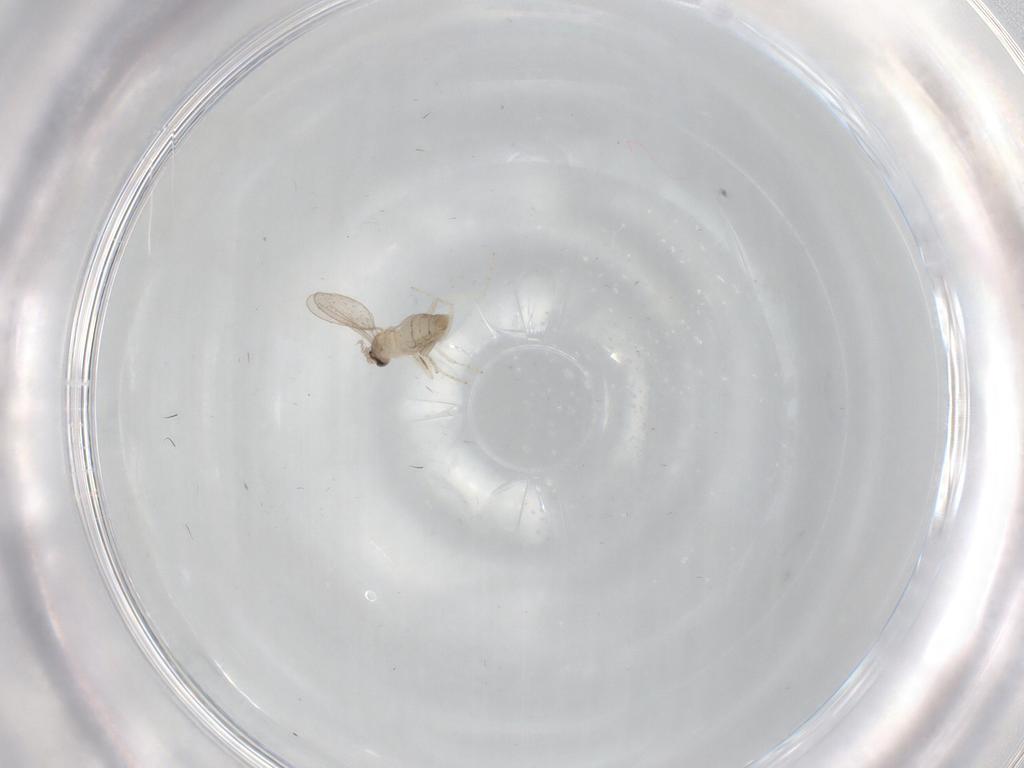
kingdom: Animalia
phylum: Arthropoda
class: Insecta
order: Diptera
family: Cecidomyiidae
